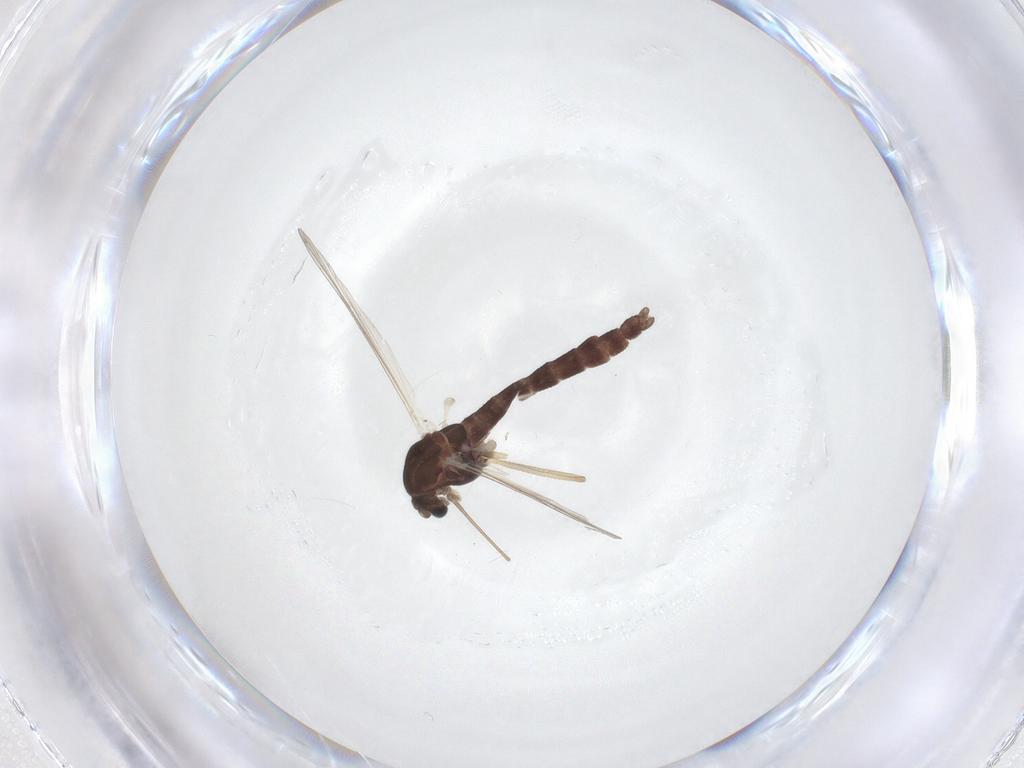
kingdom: Animalia
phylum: Arthropoda
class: Insecta
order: Diptera
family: Chironomidae
